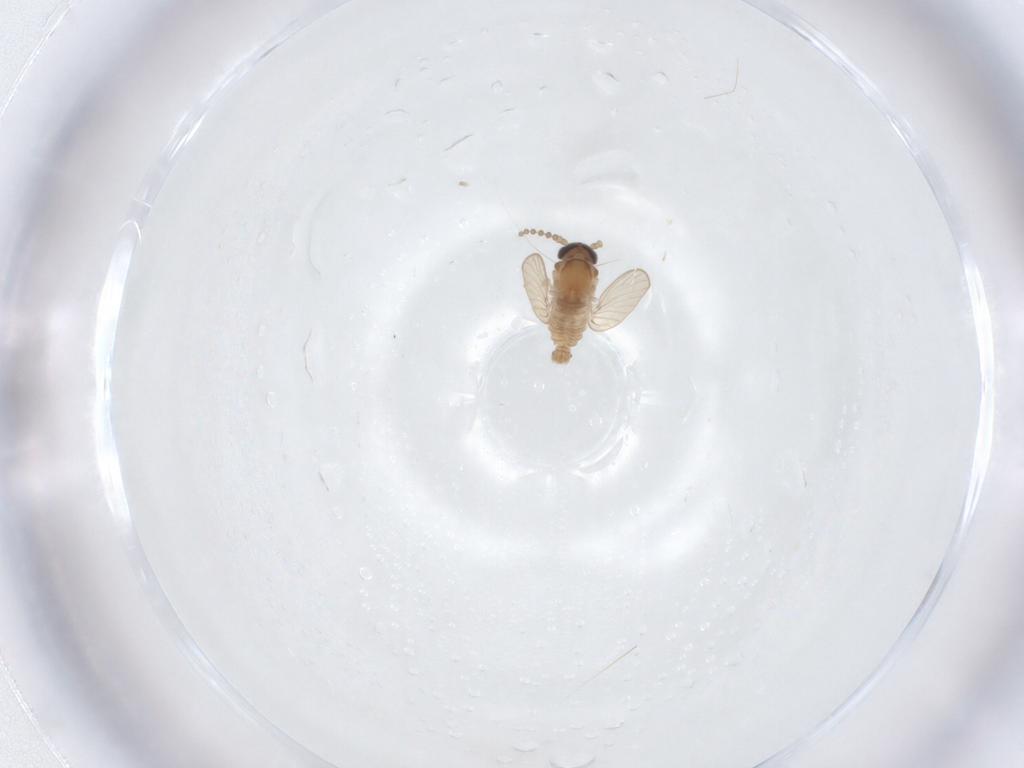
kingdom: Animalia
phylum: Arthropoda
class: Insecta
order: Diptera
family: Psychodidae
